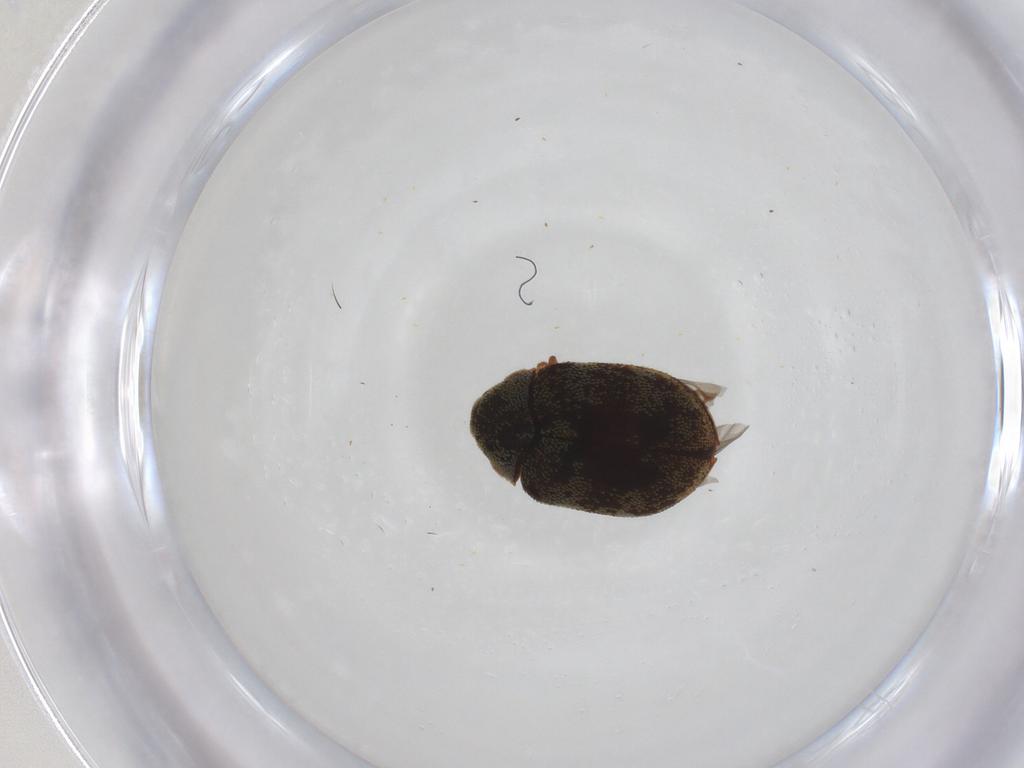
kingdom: Animalia
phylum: Arthropoda
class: Insecta
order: Coleoptera
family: Dermestidae
